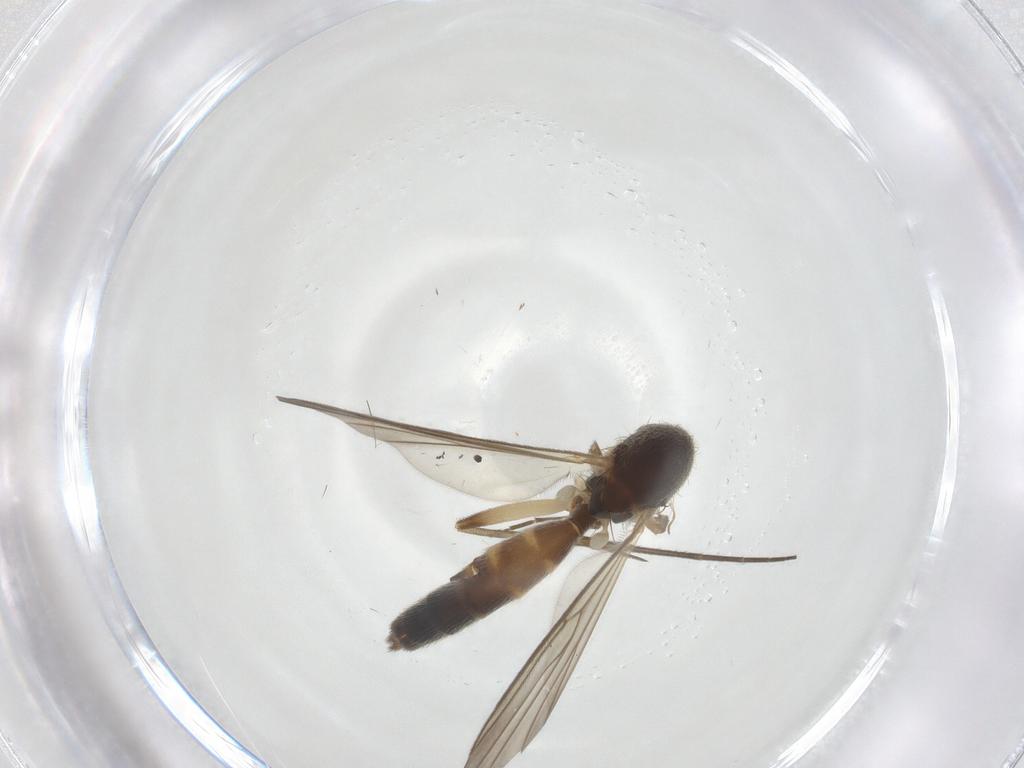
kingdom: Animalia
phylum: Arthropoda
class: Insecta
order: Diptera
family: Mycetophilidae
